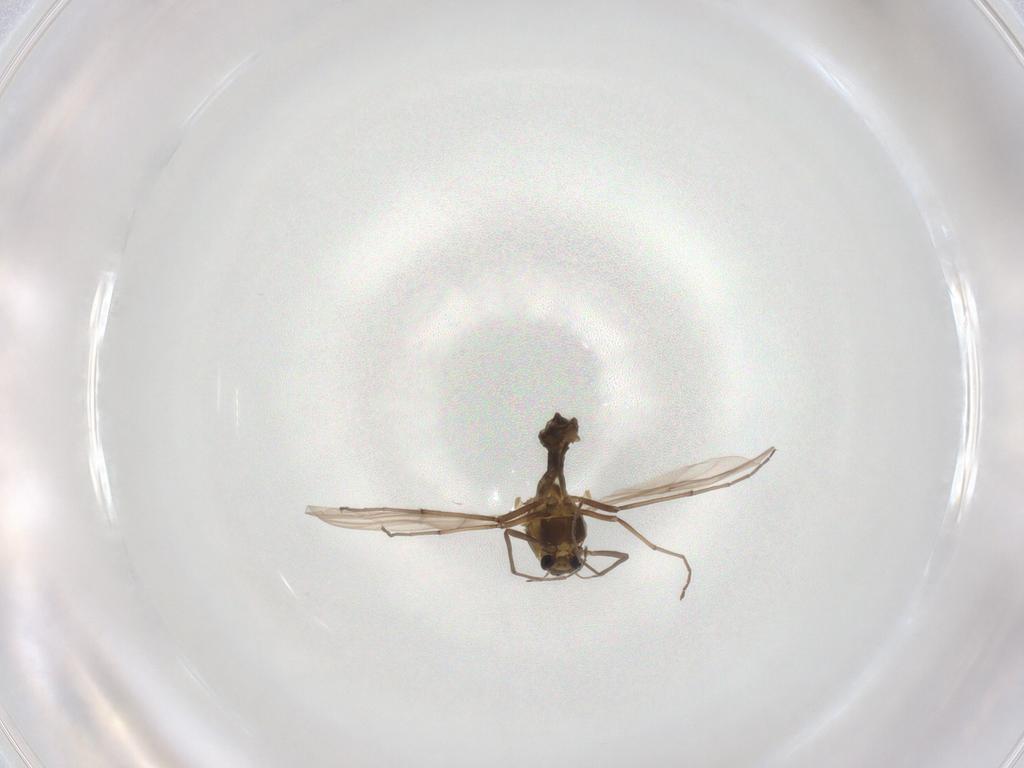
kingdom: Animalia
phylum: Arthropoda
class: Insecta
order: Diptera
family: Chironomidae
